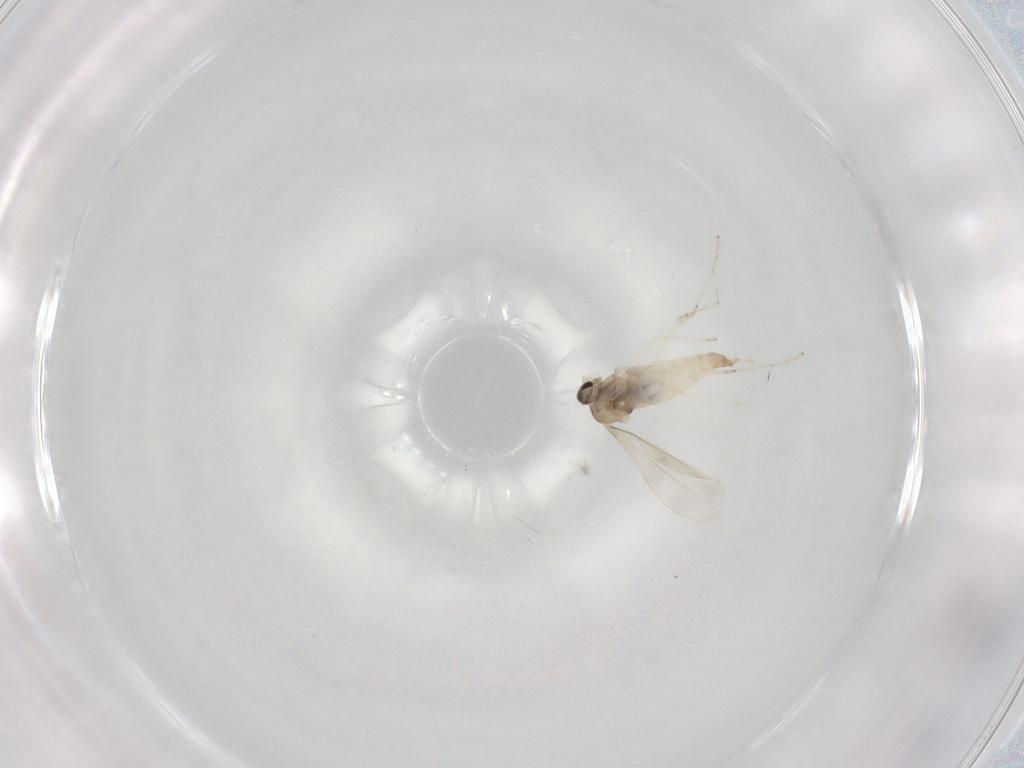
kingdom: Animalia
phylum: Arthropoda
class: Insecta
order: Diptera
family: Cecidomyiidae
